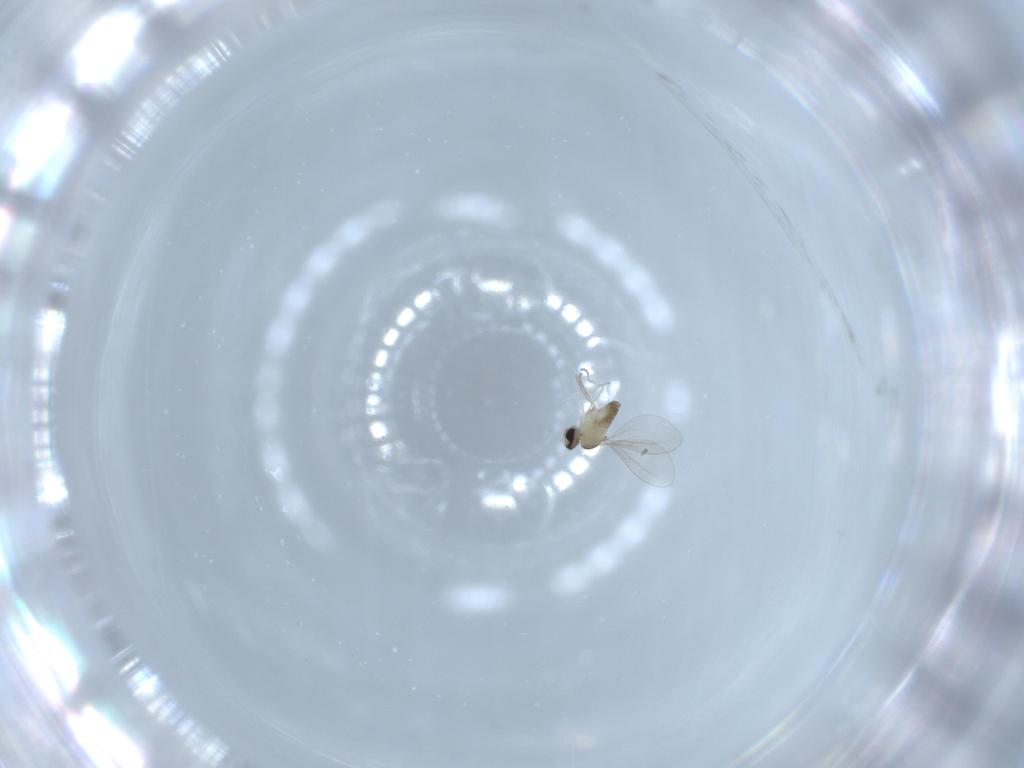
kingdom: Animalia
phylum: Arthropoda
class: Insecta
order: Diptera
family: Cecidomyiidae
